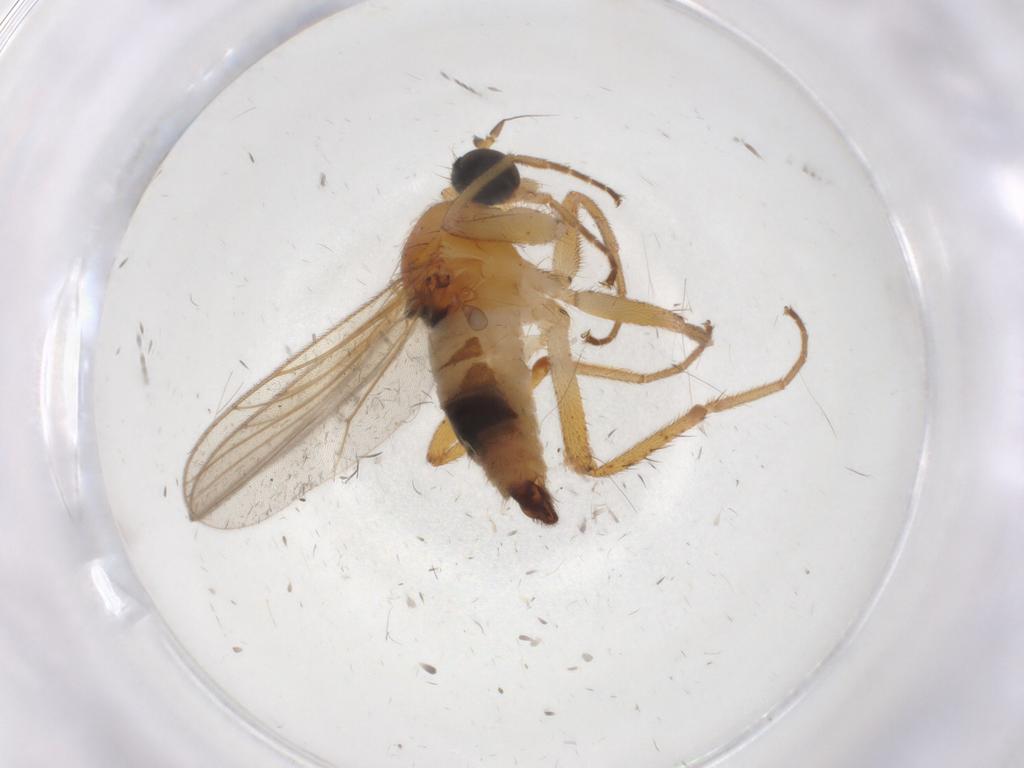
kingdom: Animalia
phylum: Arthropoda
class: Insecta
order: Diptera
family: Hybotidae
